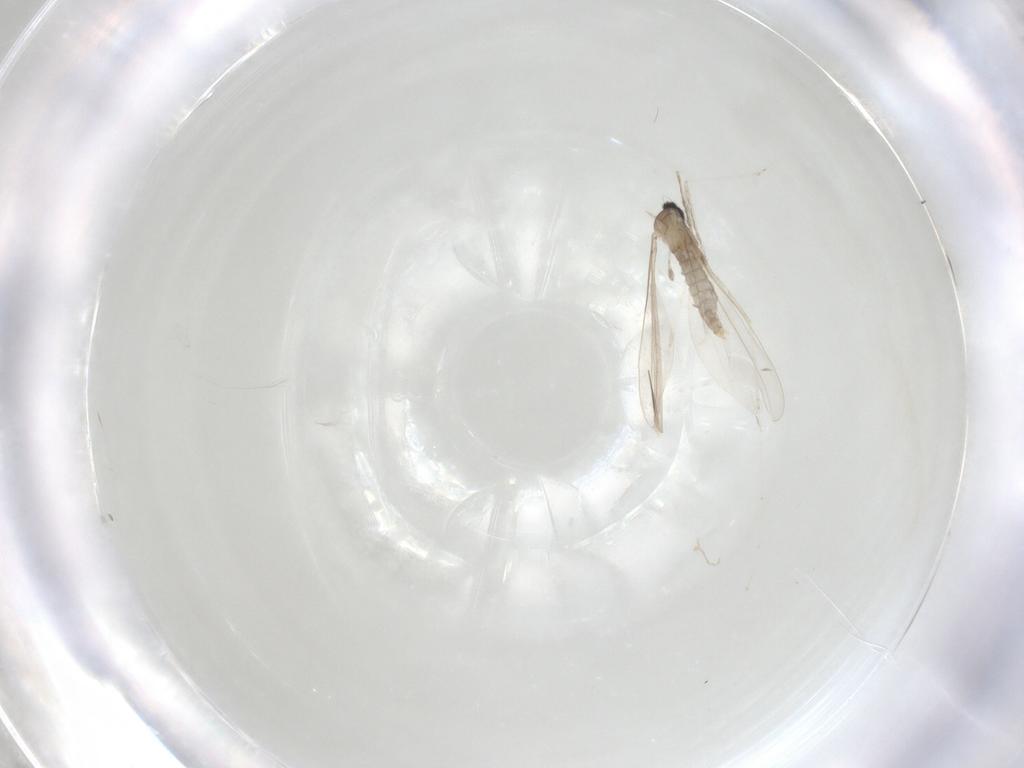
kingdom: Animalia
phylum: Arthropoda
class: Insecta
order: Diptera
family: Cecidomyiidae
